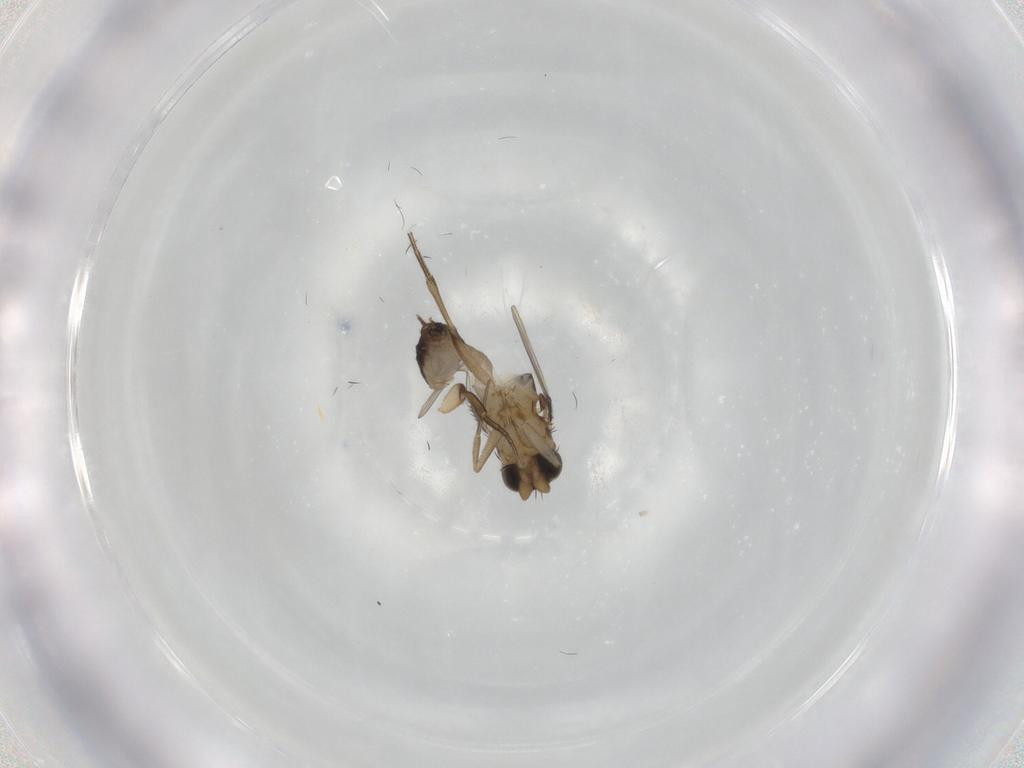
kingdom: Animalia
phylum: Arthropoda
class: Insecta
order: Diptera
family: Phoridae
